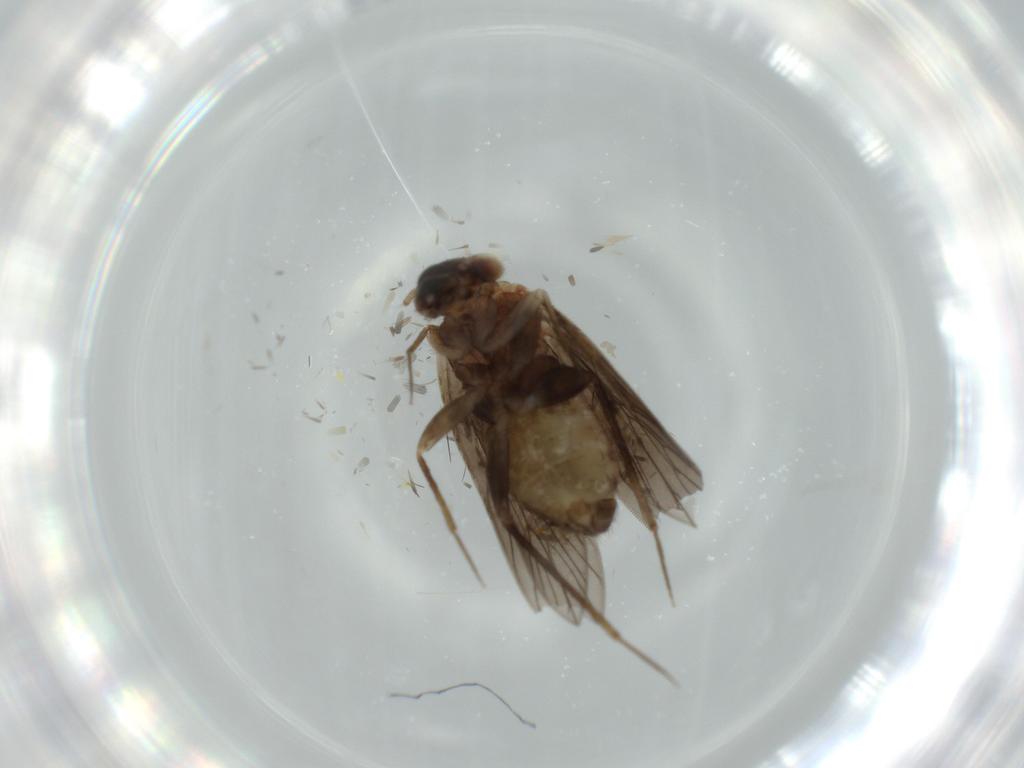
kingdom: Animalia
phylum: Arthropoda
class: Insecta
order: Psocodea
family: Lepidopsocidae
